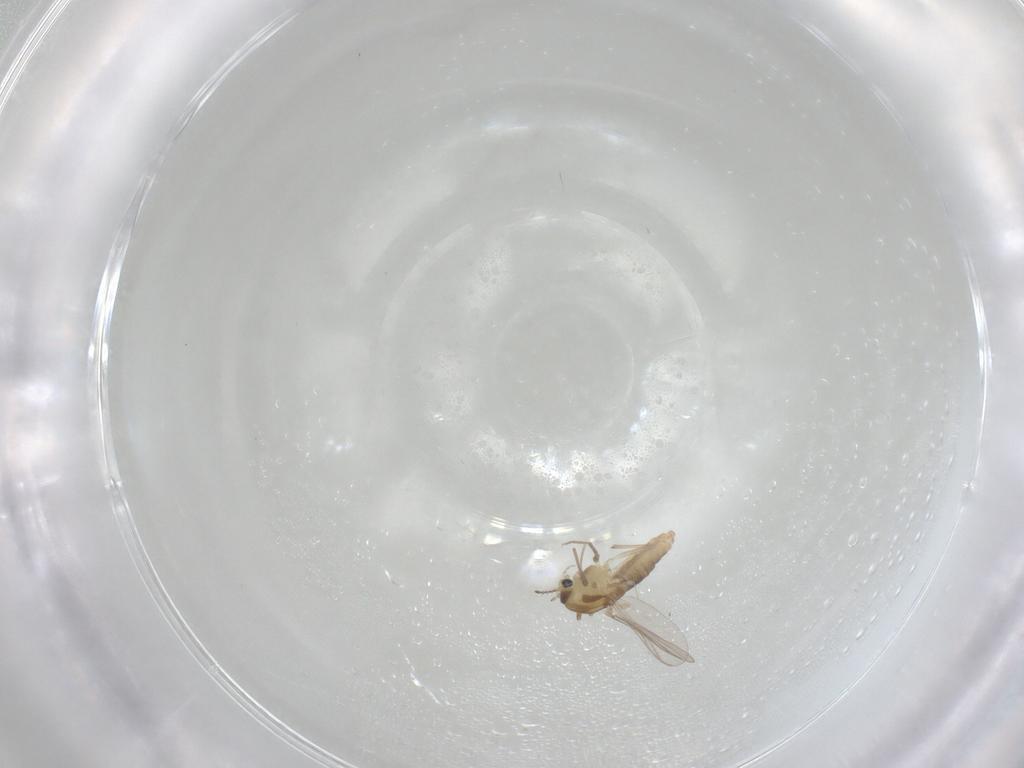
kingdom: Animalia
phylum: Arthropoda
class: Insecta
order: Diptera
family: Chironomidae
